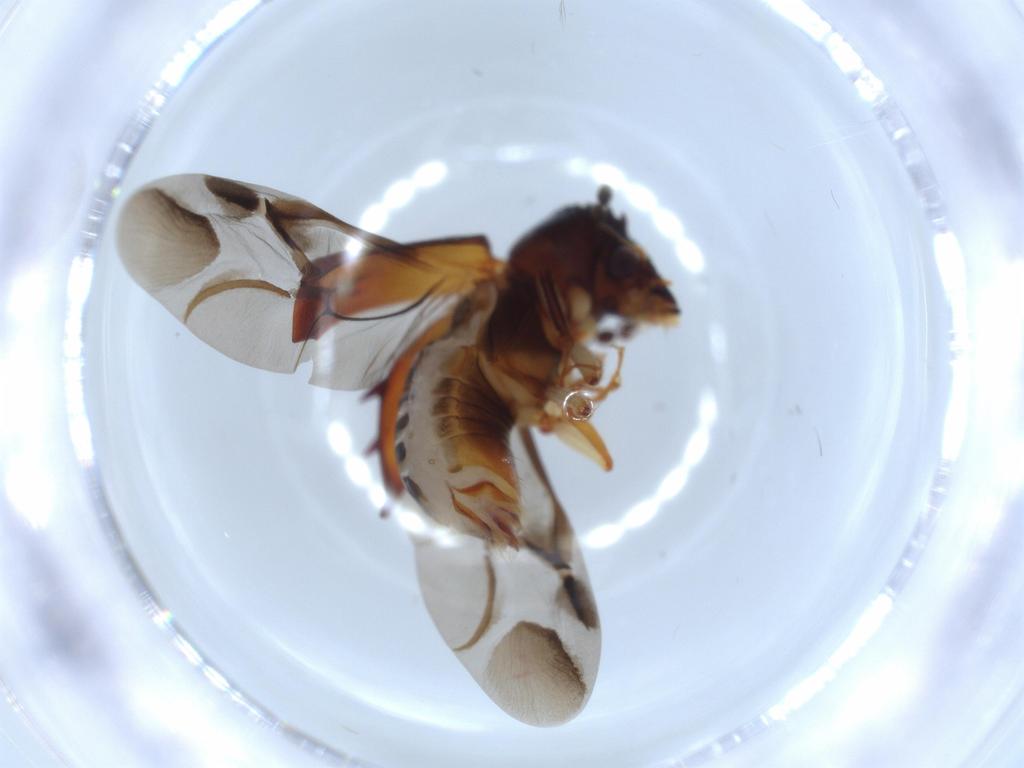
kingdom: Animalia
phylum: Arthropoda
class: Insecta
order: Coleoptera
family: Bostrichidae
